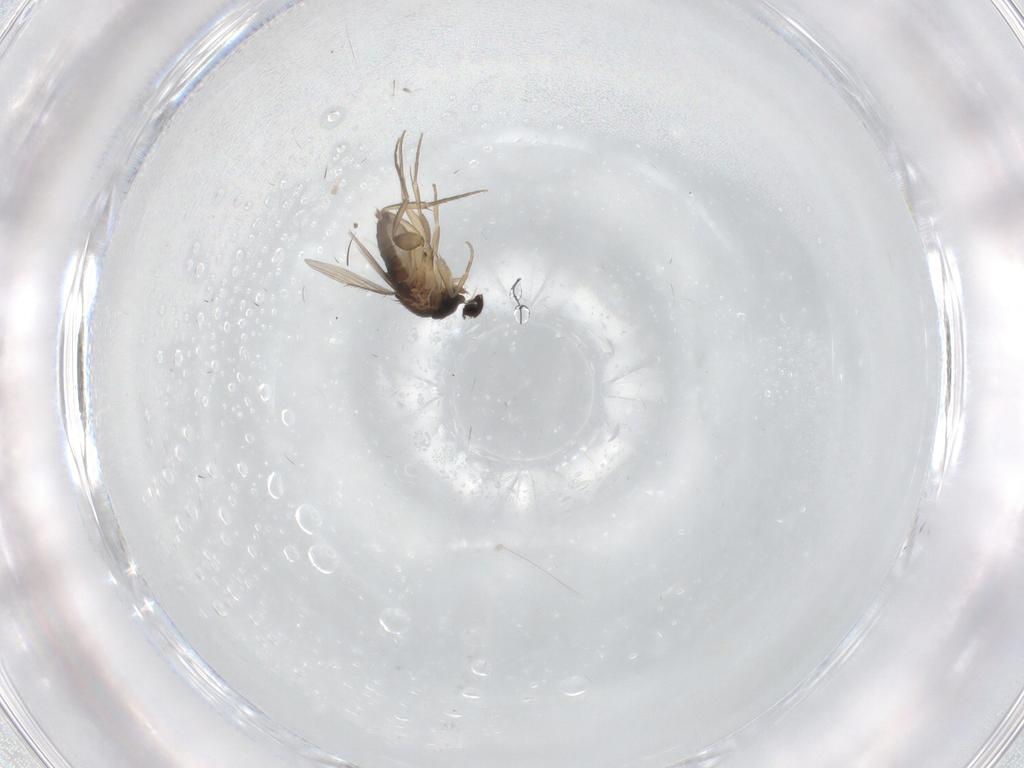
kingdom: Animalia
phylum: Arthropoda
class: Insecta
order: Diptera
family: Phoridae
